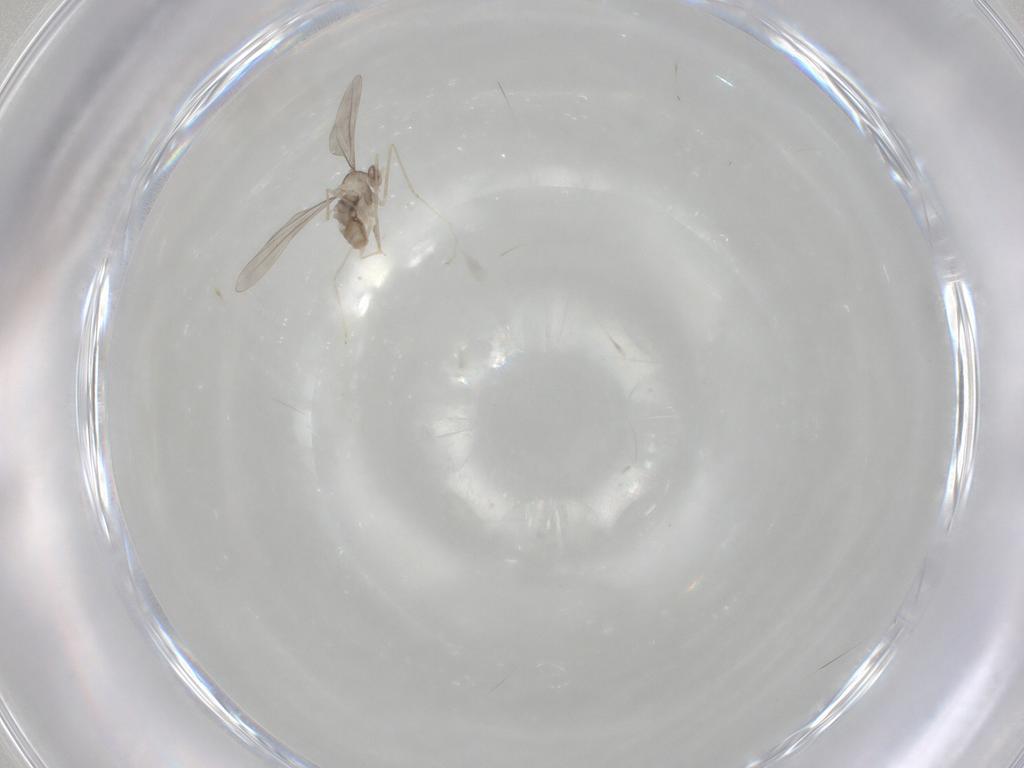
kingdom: Animalia
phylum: Arthropoda
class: Insecta
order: Diptera
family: Cecidomyiidae
